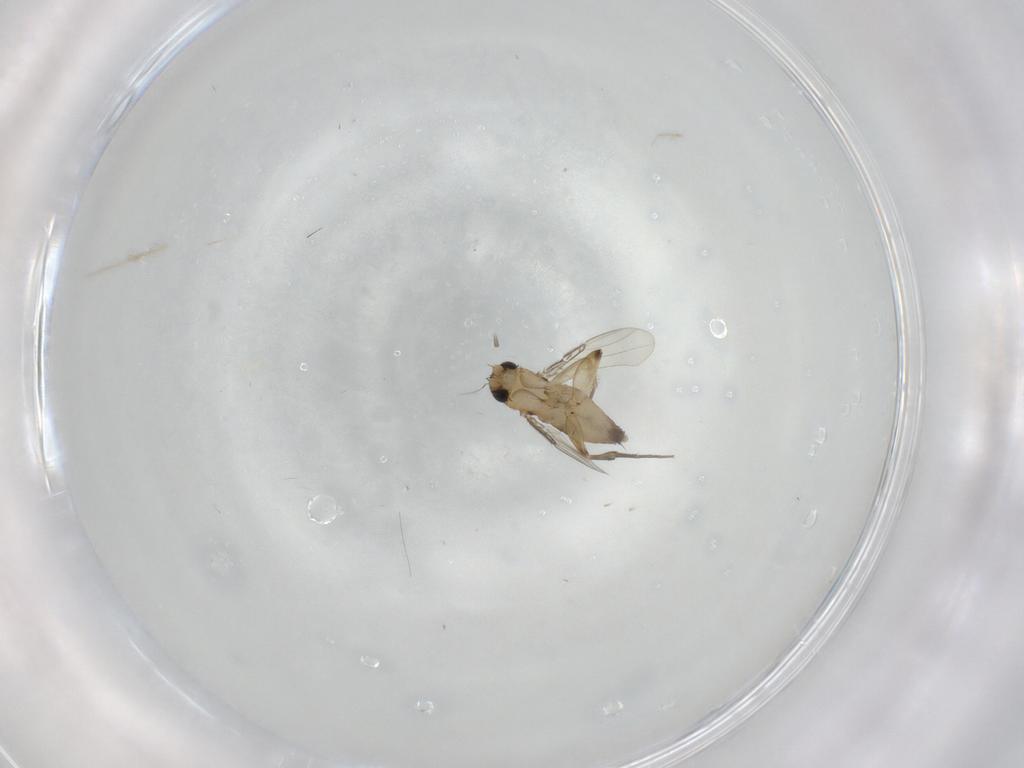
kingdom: Animalia
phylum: Arthropoda
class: Insecta
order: Diptera
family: Phoridae
